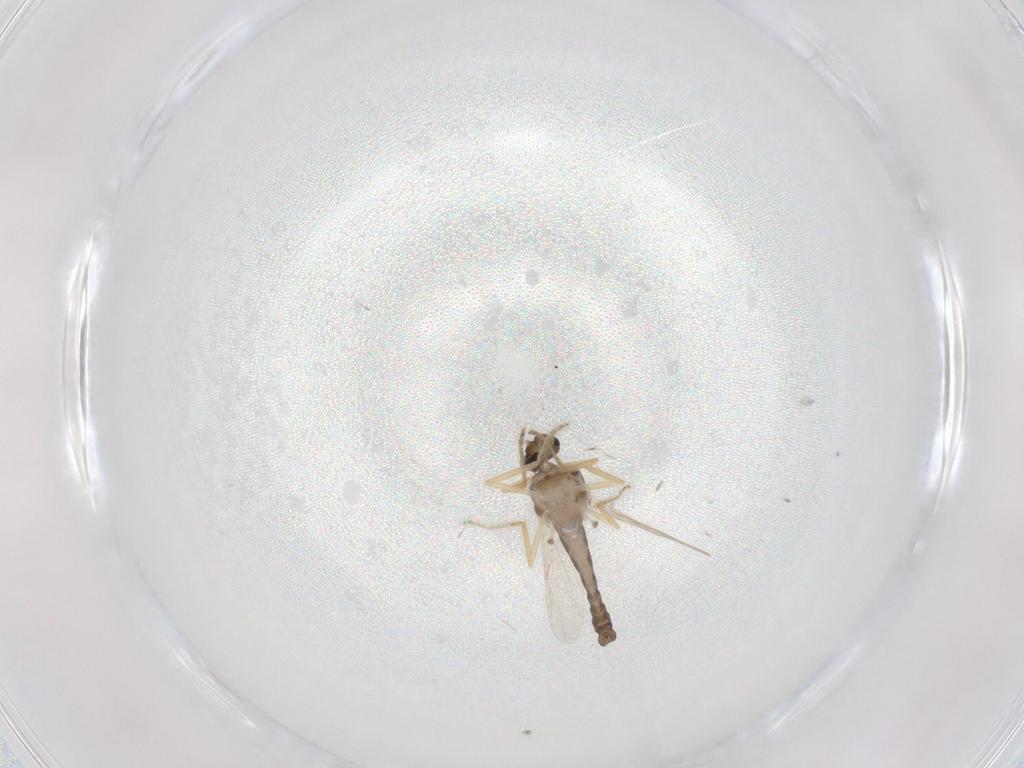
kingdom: Animalia
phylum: Arthropoda
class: Insecta
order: Diptera
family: Ceratopogonidae
